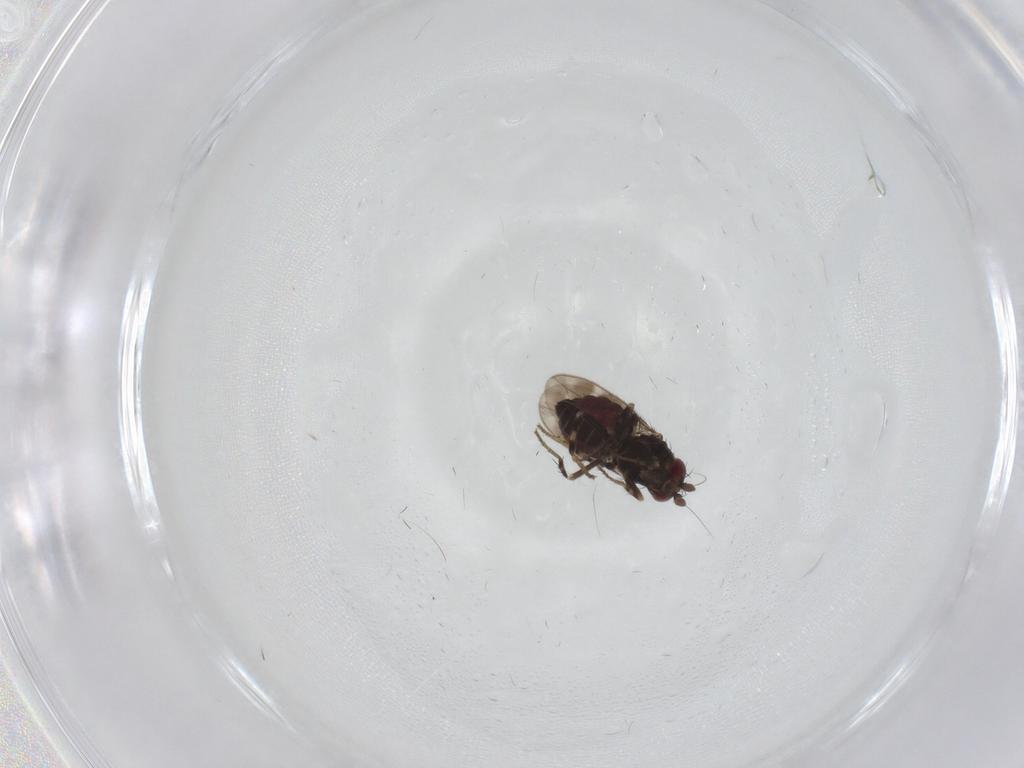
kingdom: Animalia
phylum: Arthropoda
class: Insecta
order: Diptera
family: Sphaeroceridae
